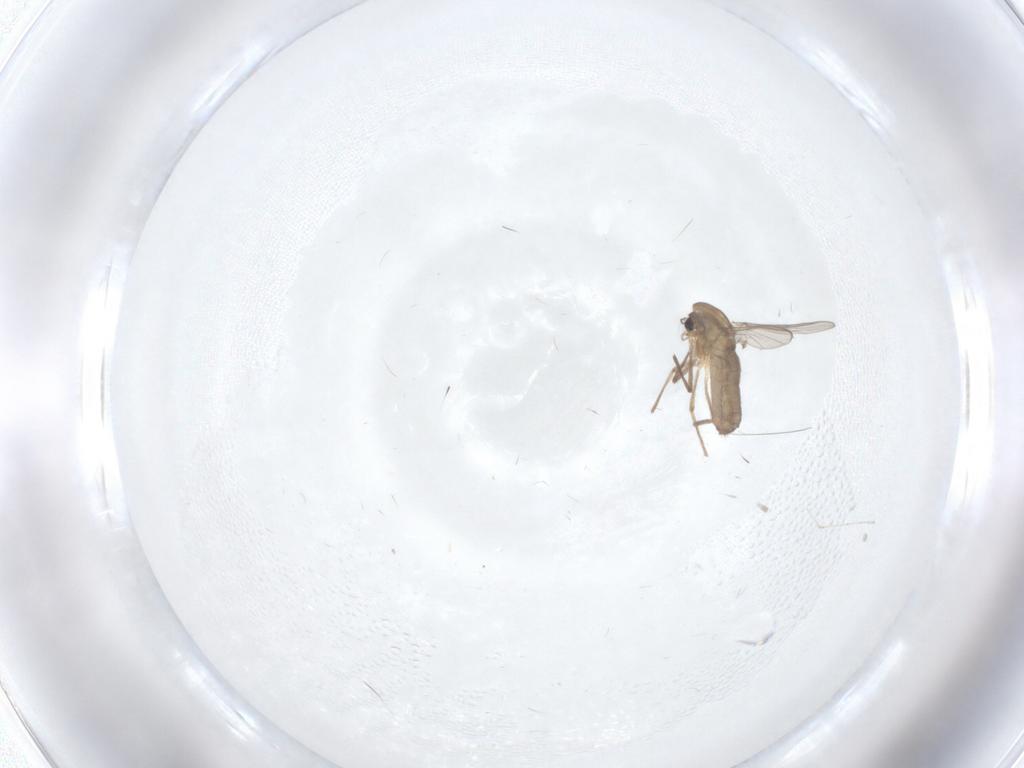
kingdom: Animalia
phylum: Arthropoda
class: Insecta
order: Diptera
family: Chironomidae
